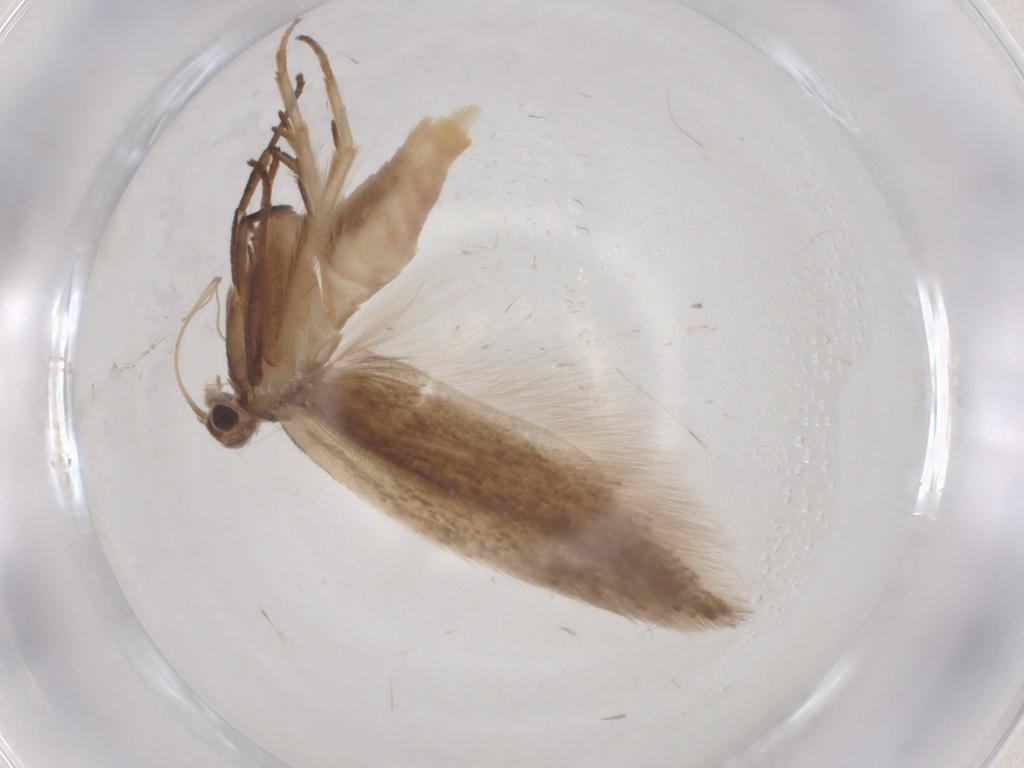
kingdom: Animalia
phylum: Arthropoda
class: Insecta
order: Lepidoptera
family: Gelechiidae
